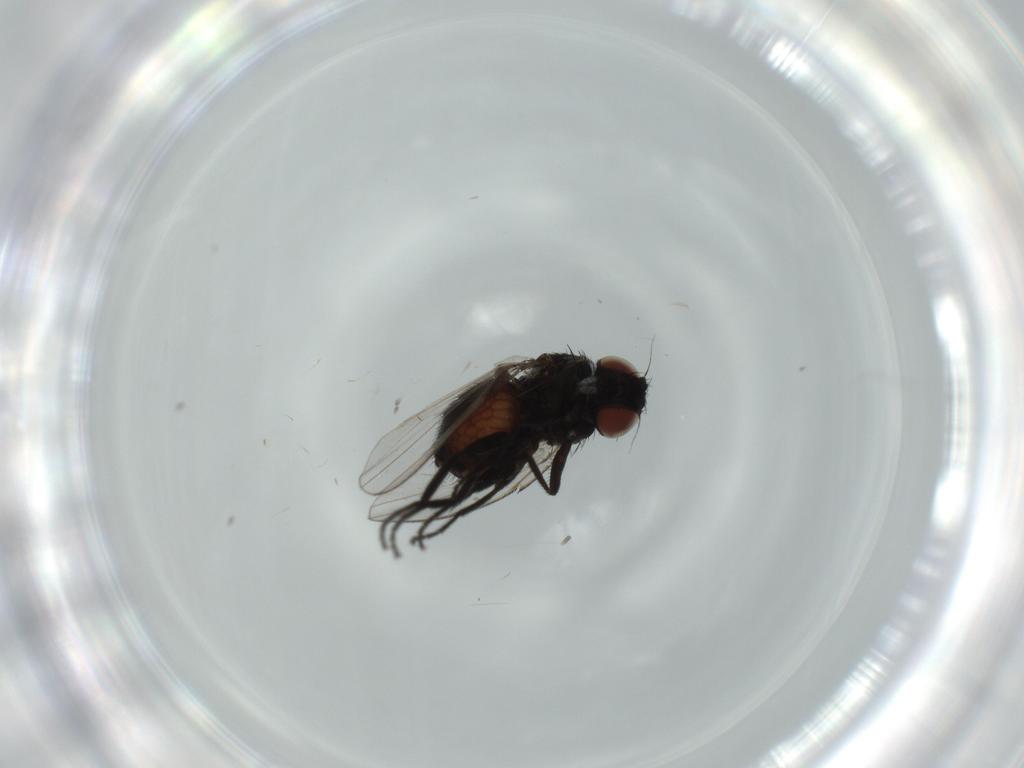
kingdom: Animalia
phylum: Arthropoda
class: Insecta
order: Diptera
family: Milichiidae
